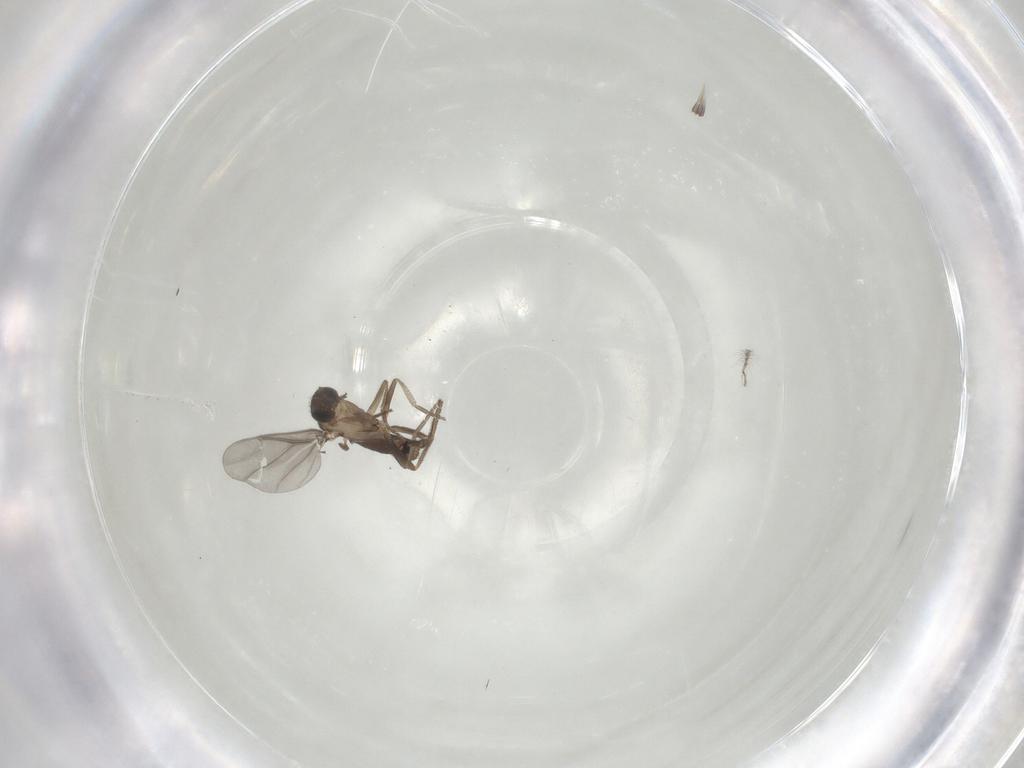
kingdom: Animalia
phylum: Arthropoda
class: Insecta
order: Diptera
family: Chaoboridae
